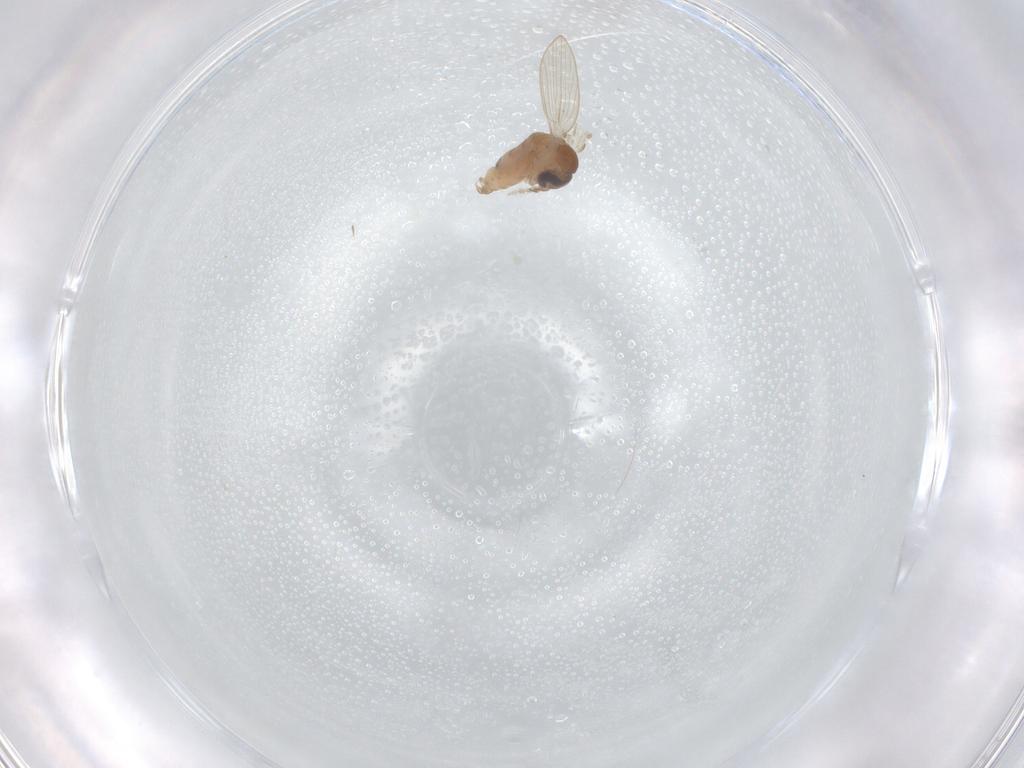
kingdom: Animalia
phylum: Arthropoda
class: Insecta
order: Diptera
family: Psychodidae
